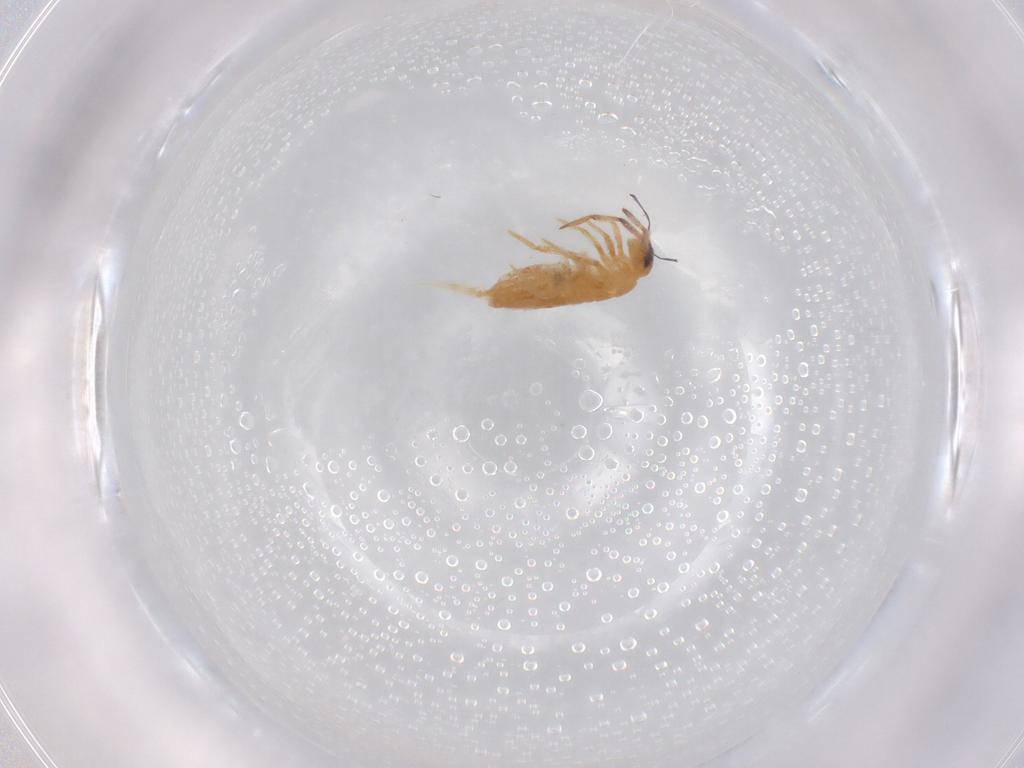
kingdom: Animalia
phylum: Arthropoda
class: Collembola
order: Entomobryomorpha
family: Entomobryidae
